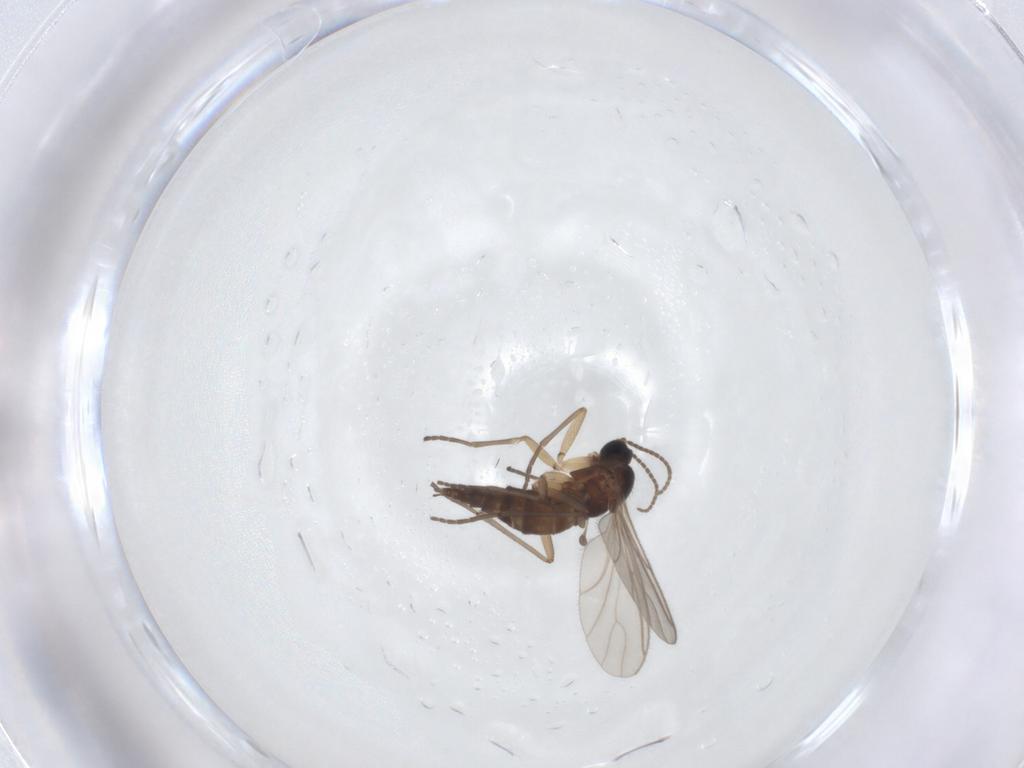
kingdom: Animalia
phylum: Arthropoda
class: Insecta
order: Diptera
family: Sciaridae
